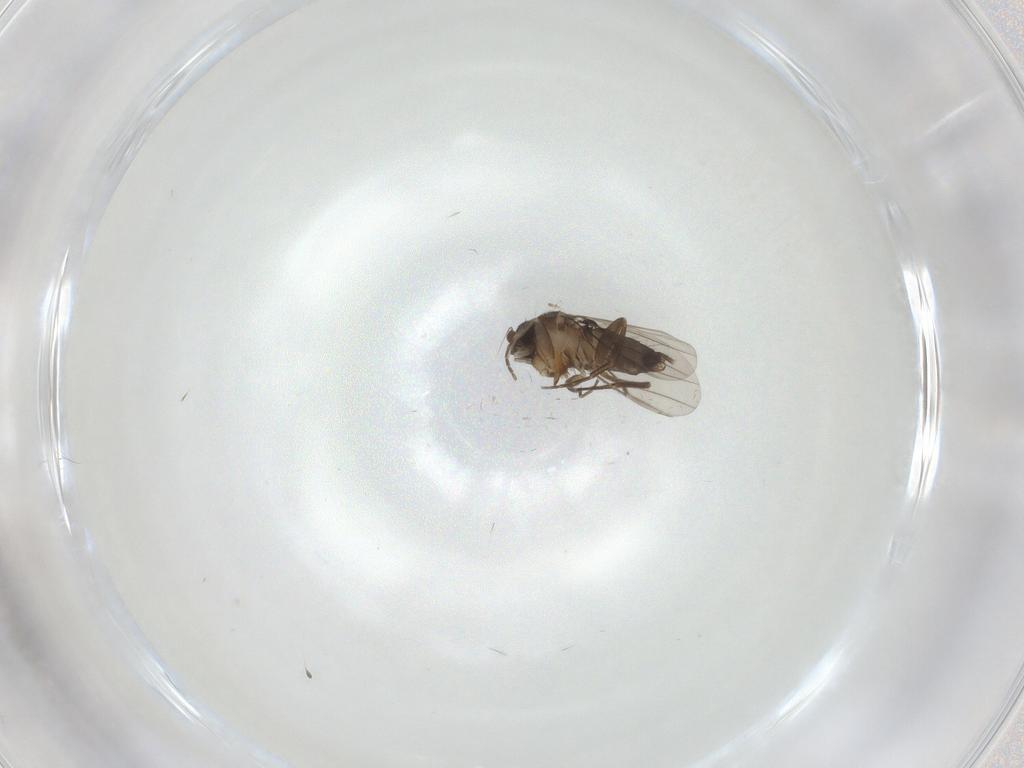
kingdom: Animalia
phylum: Arthropoda
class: Insecta
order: Diptera
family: Phoridae
